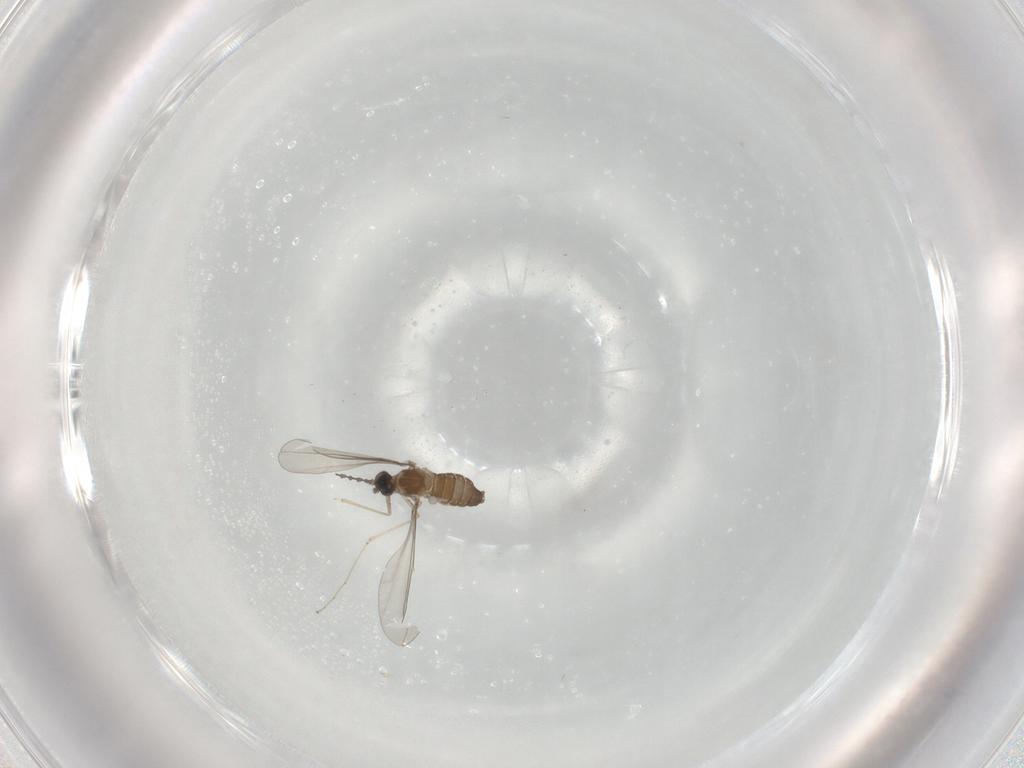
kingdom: Animalia
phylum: Arthropoda
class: Insecta
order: Diptera
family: Cecidomyiidae
